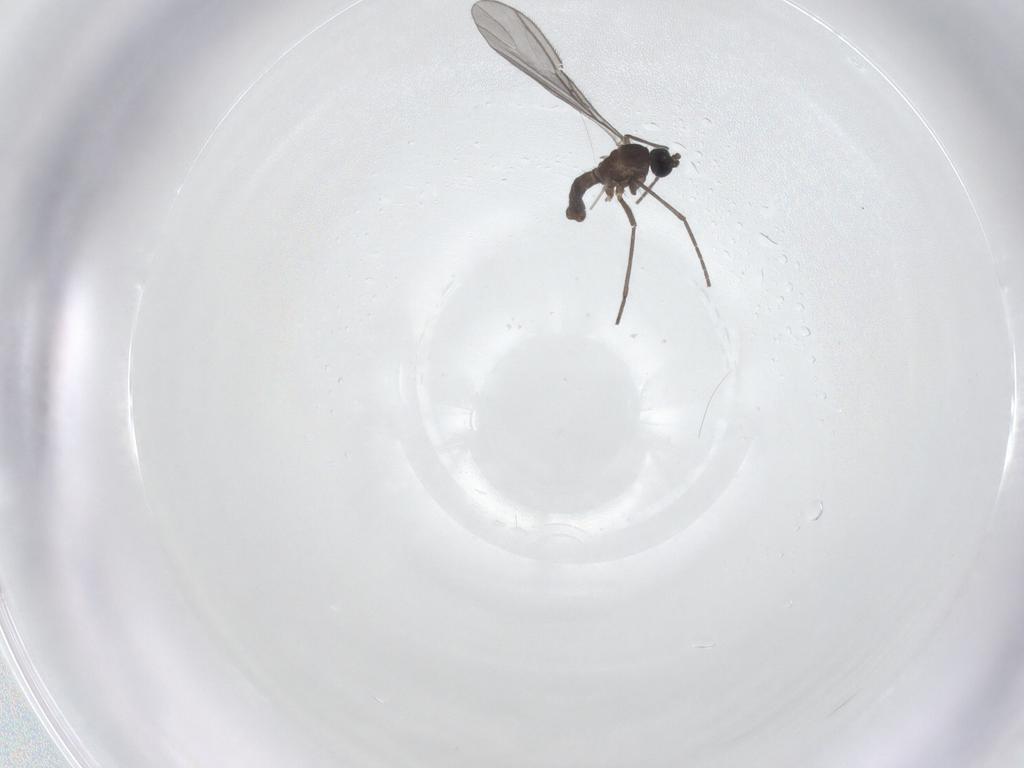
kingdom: Animalia
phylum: Arthropoda
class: Insecta
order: Diptera
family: Sciaridae
